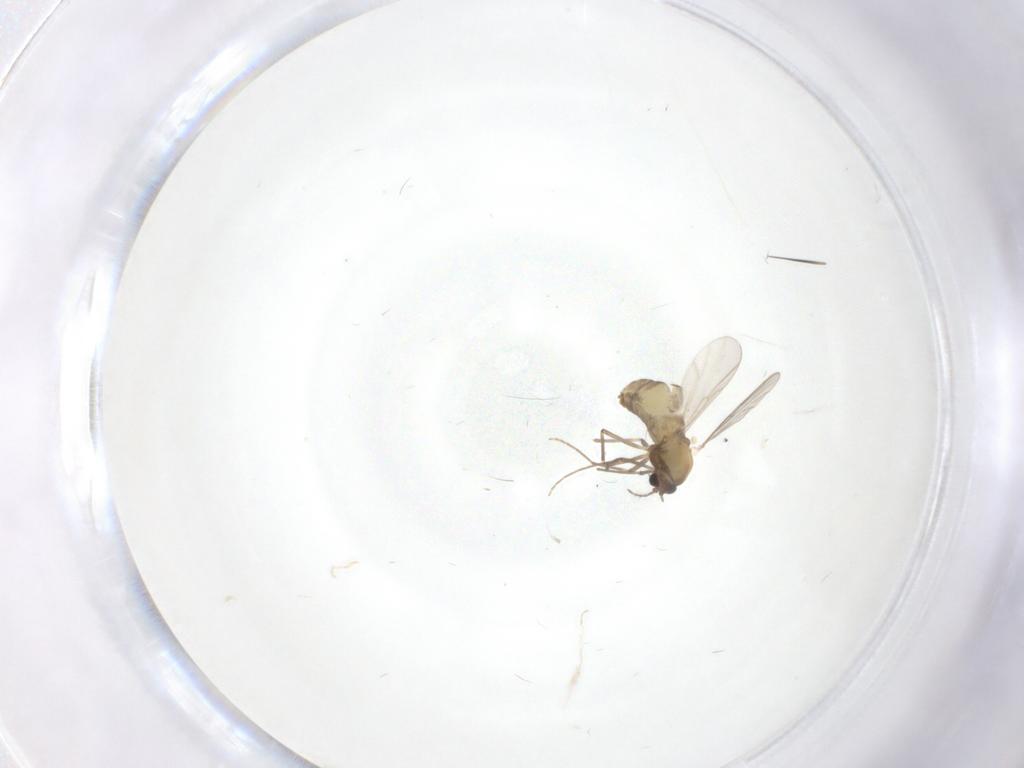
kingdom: Animalia
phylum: Arthropoda
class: Insecta
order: Diptera
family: Chironomidae
